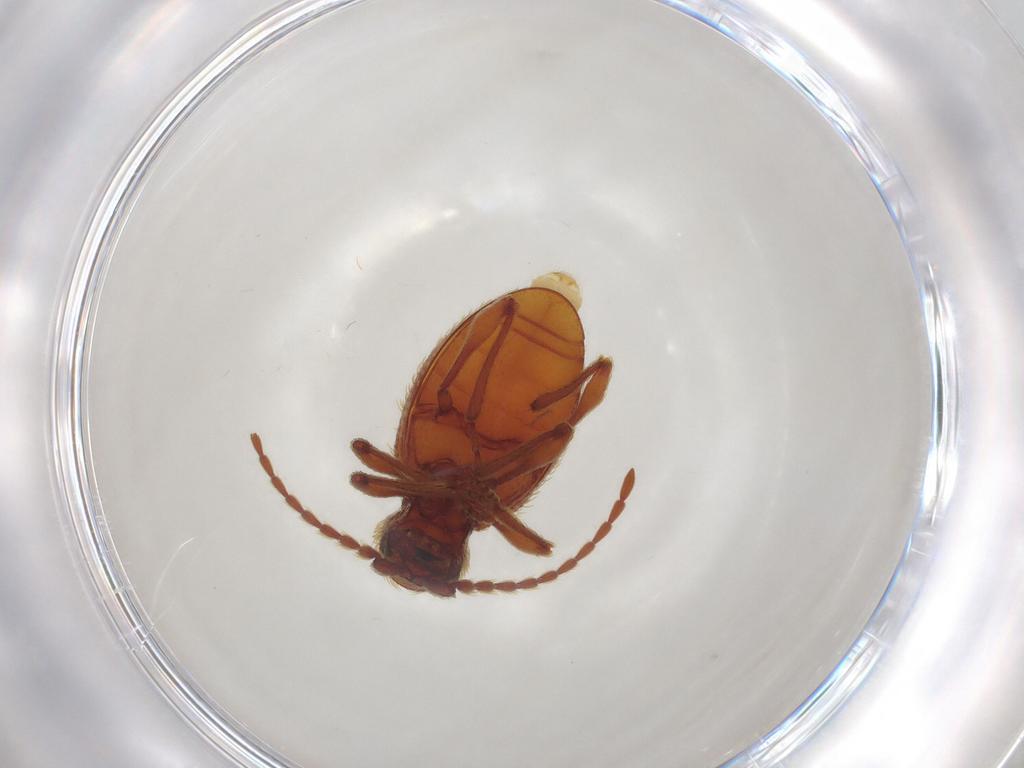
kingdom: Animalia
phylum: Arthropoda
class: Insecta
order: Coleoptera
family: Ptinidae
